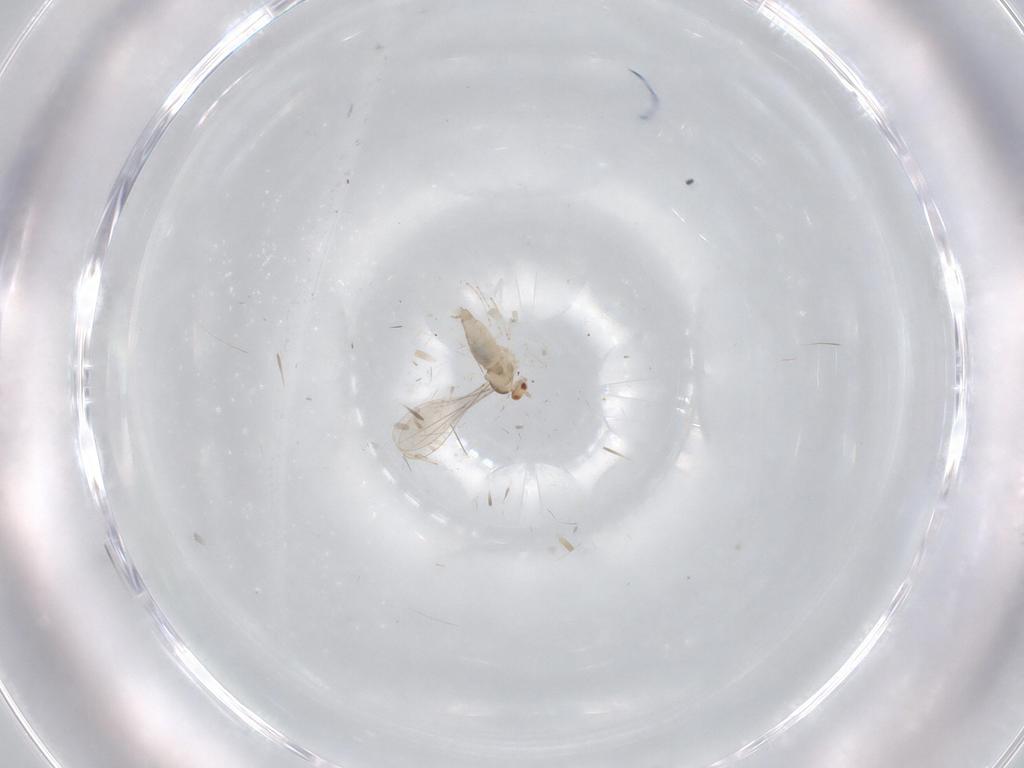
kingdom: Animalia
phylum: Arthropoda
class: Insecta
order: Diptera
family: Cecidomyiidae
